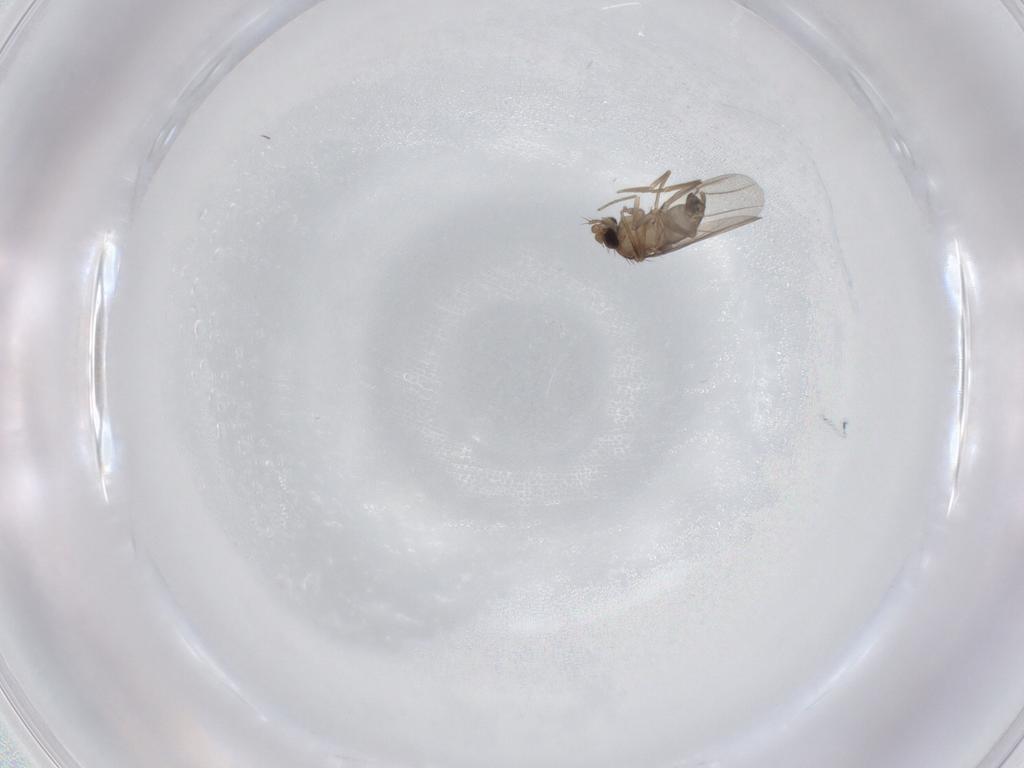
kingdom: Animalia
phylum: Arthropoda
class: Insecta
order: Diptera
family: Phoridae
